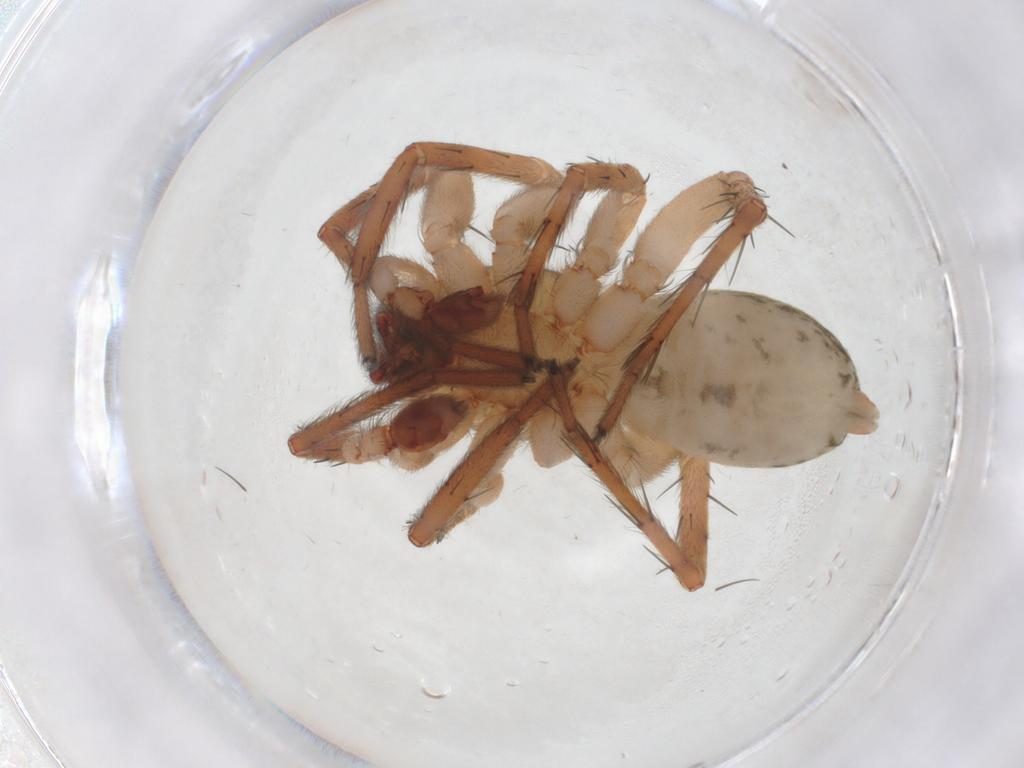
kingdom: Animalia
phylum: Arthropoda
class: Arachnida
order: Araneae
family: Anyphaenidae
